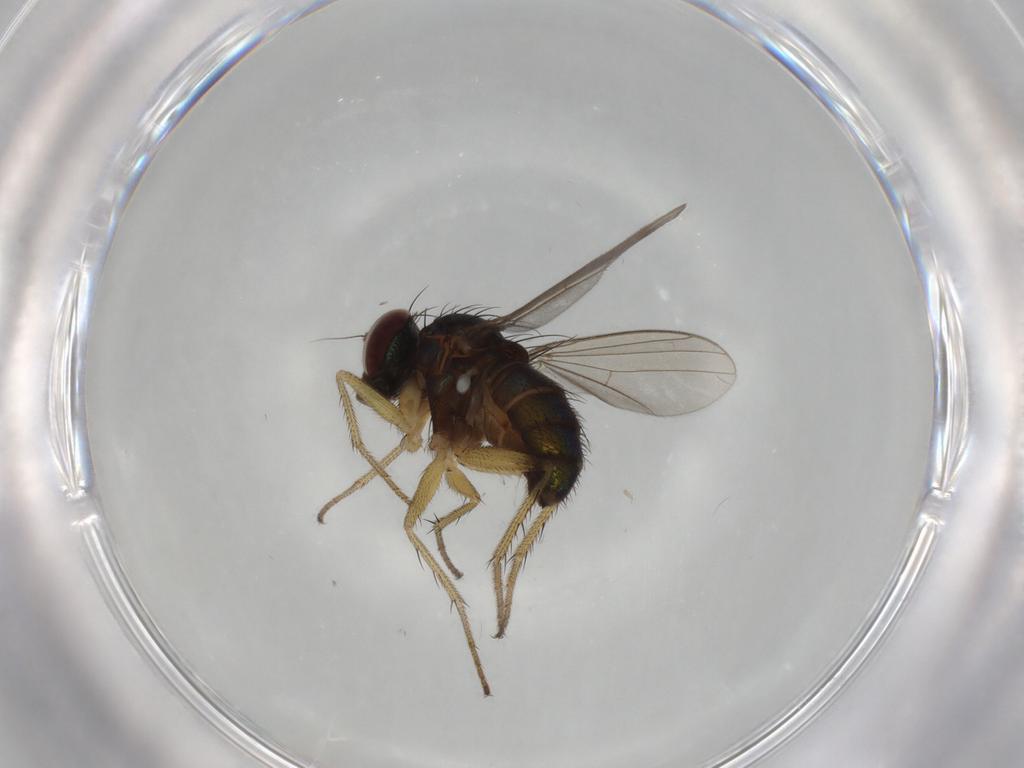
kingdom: Animalia
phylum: Arthropoda
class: Insecta
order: Diptera
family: Dolichopodidae
